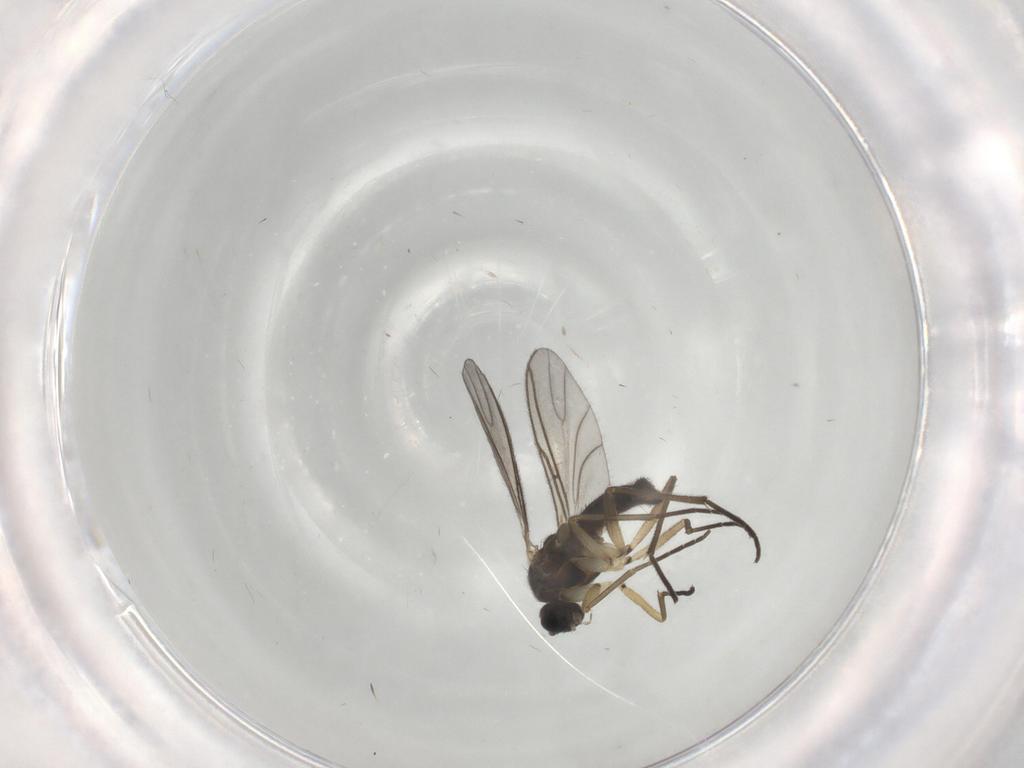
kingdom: Animalia
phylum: Arthropoda
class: Insecta
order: Diptera
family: Sciaridae
